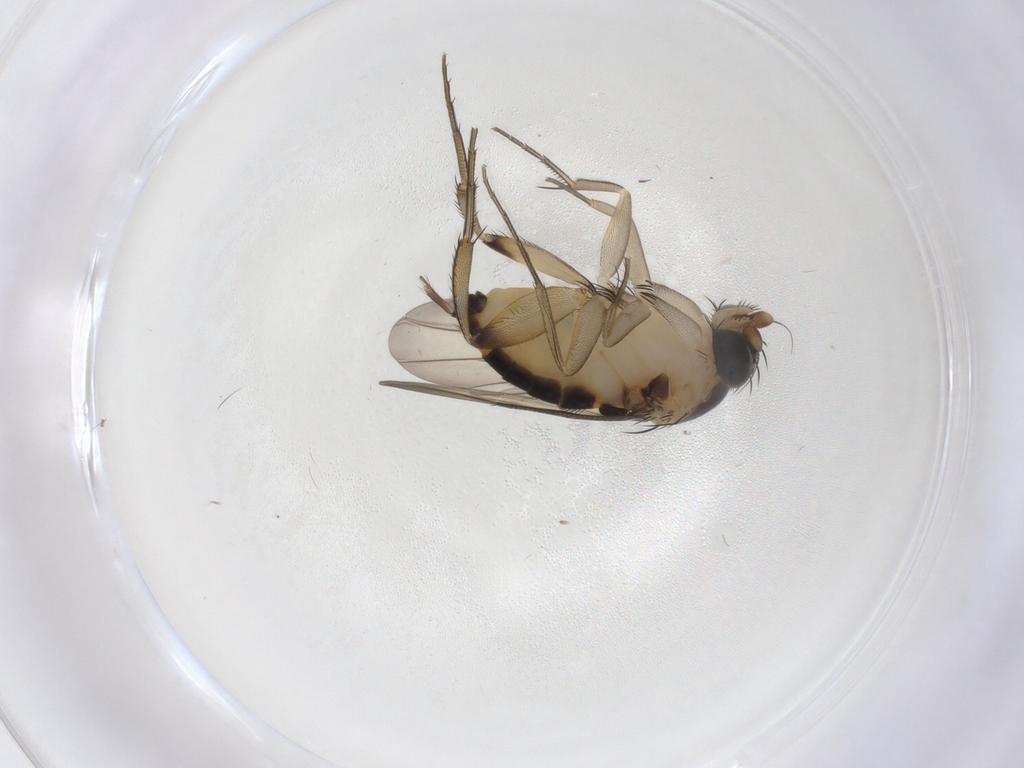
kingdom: Animalia
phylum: Arthropoda
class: Insecta
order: Diptera
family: Phoridae
